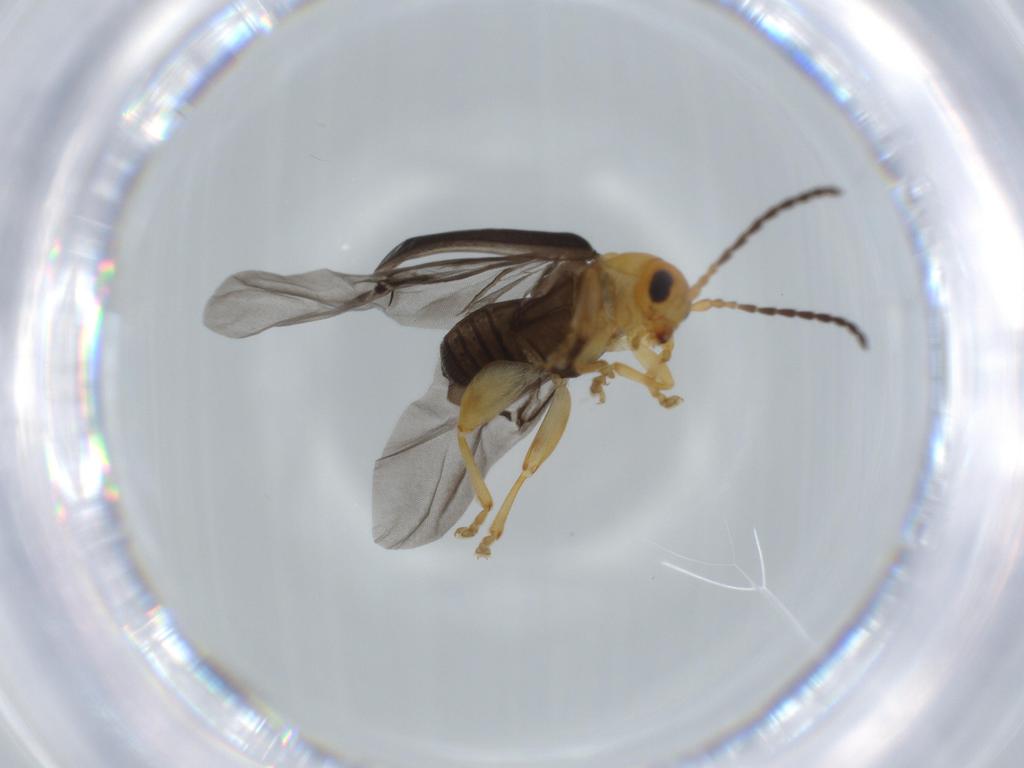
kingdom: Animalia
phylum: Arthropoda
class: Insecta
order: Coleoptera
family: Chrysomelidae
